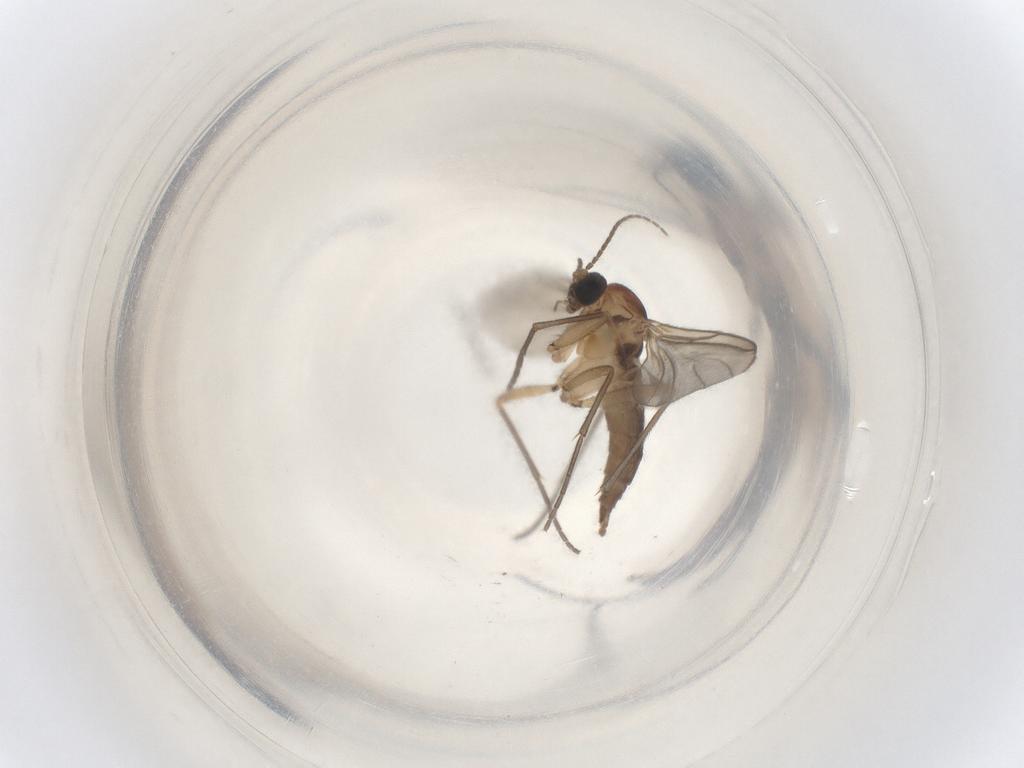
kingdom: Animalia
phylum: Arthropoda
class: Insecta
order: Diptera
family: Sciaridae
